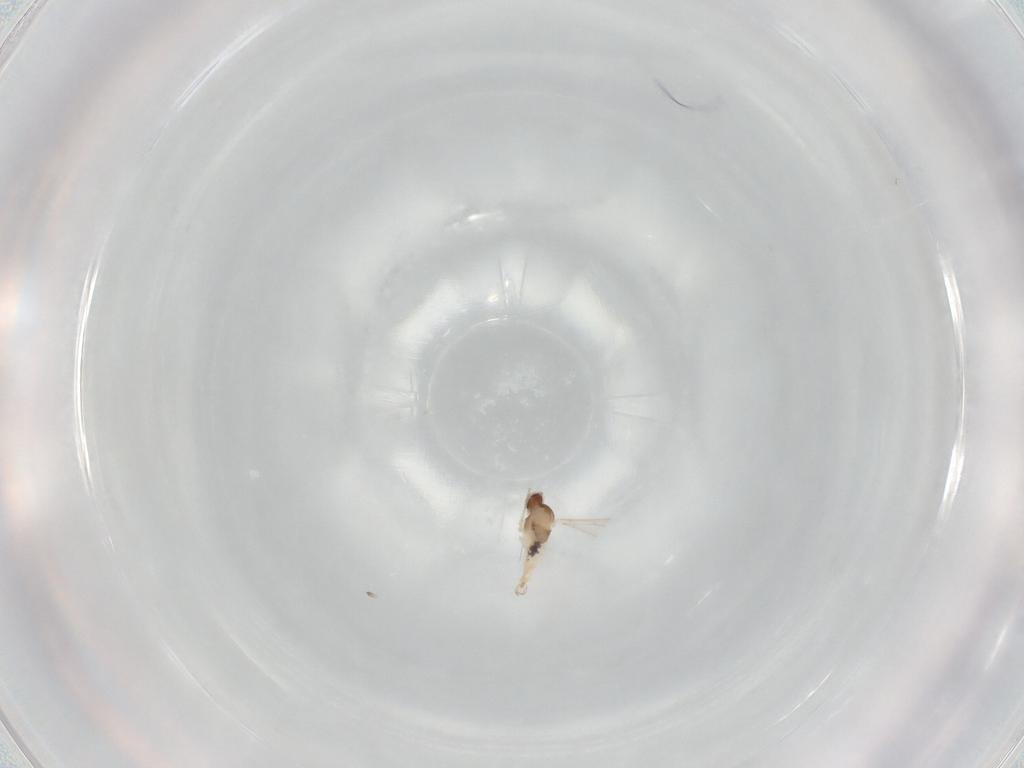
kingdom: Animalia
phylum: Arthropoda
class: Insecta
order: Diptera
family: Cecidomyiidae
